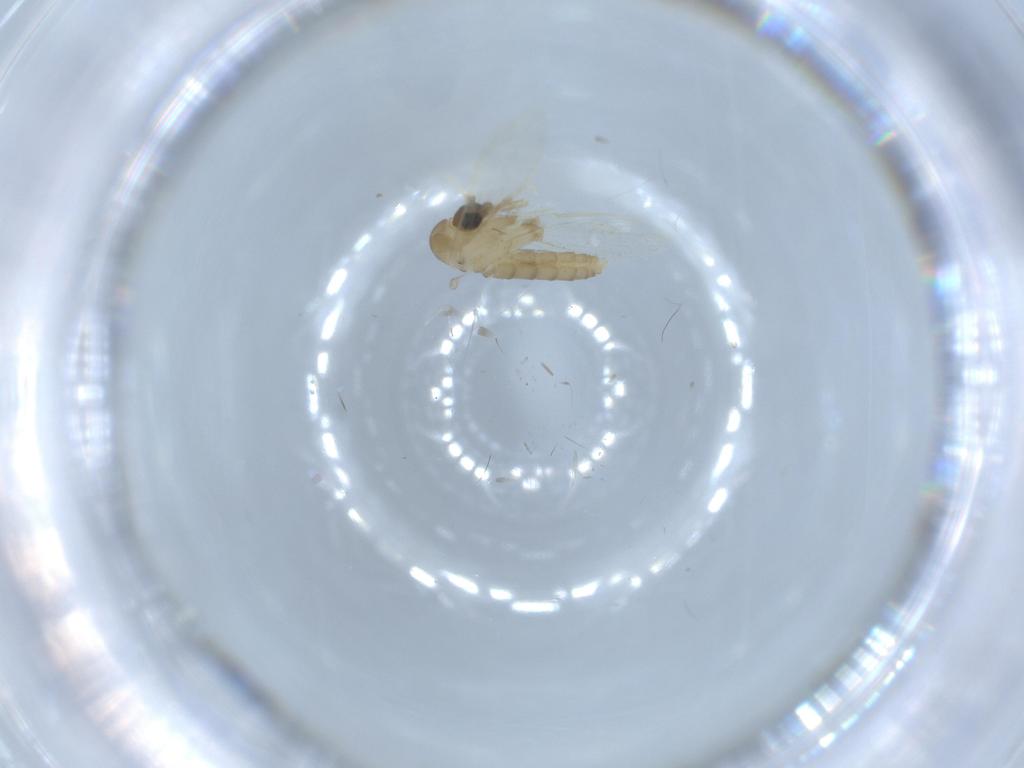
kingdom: Animalia
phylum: Arthropoda
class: Insecta
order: Diptera
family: Psychodidae
